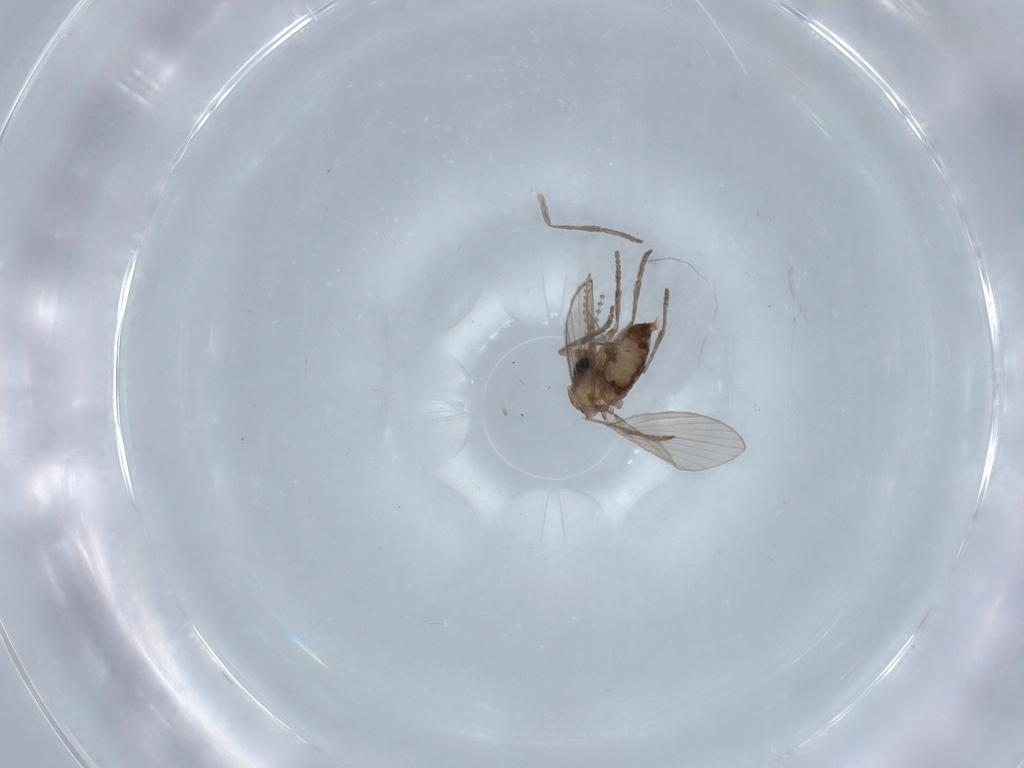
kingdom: Animalia
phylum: Arthropoda
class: Insecta
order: Diptera
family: Psychodidae
